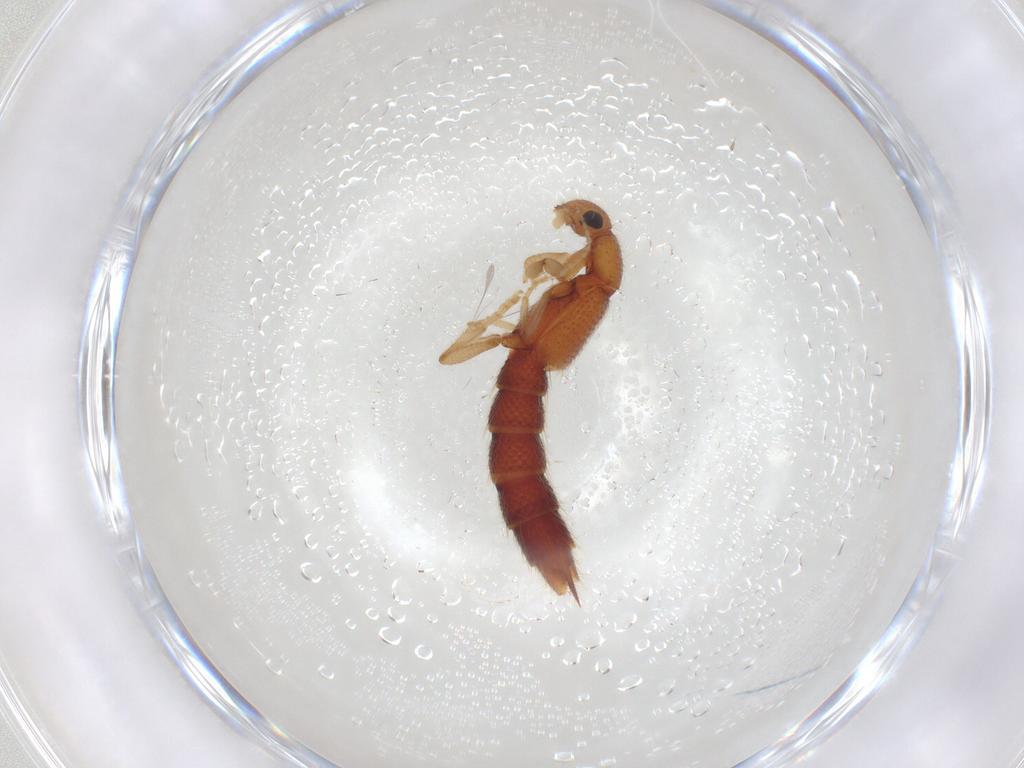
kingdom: Animalia
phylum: Arthropoda
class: Insecta
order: Coleoptera
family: Staphylinidae
